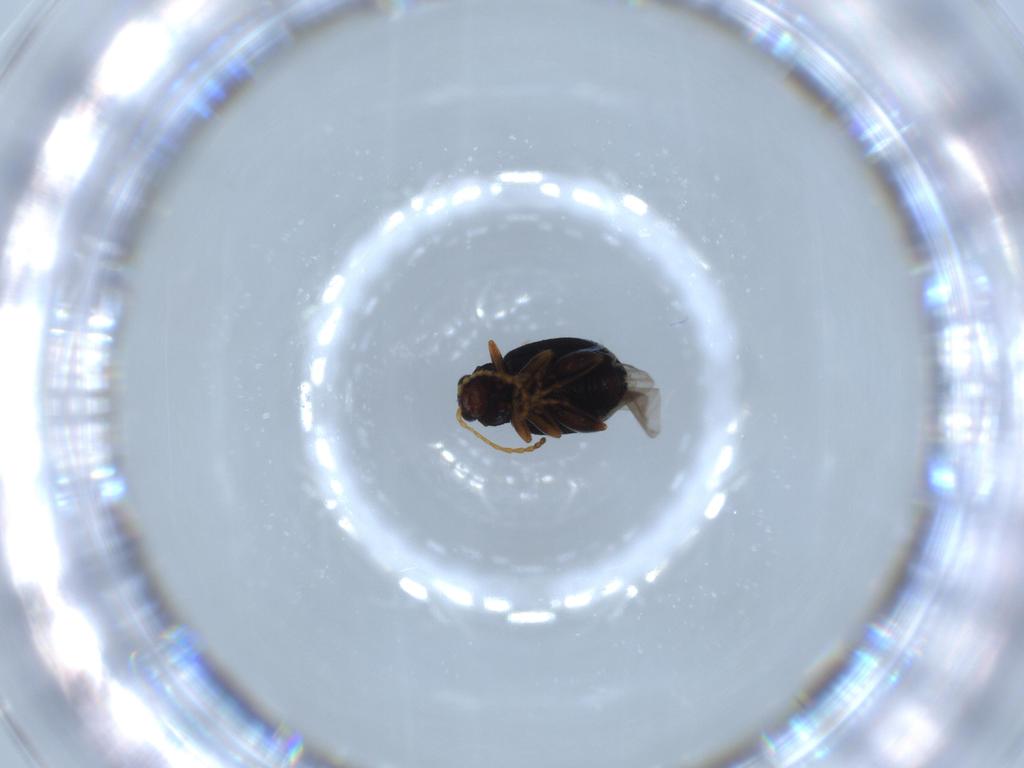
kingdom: Animalia
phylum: Arthropoda
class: Insecta
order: Coleoptera
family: Chrysomelidae
